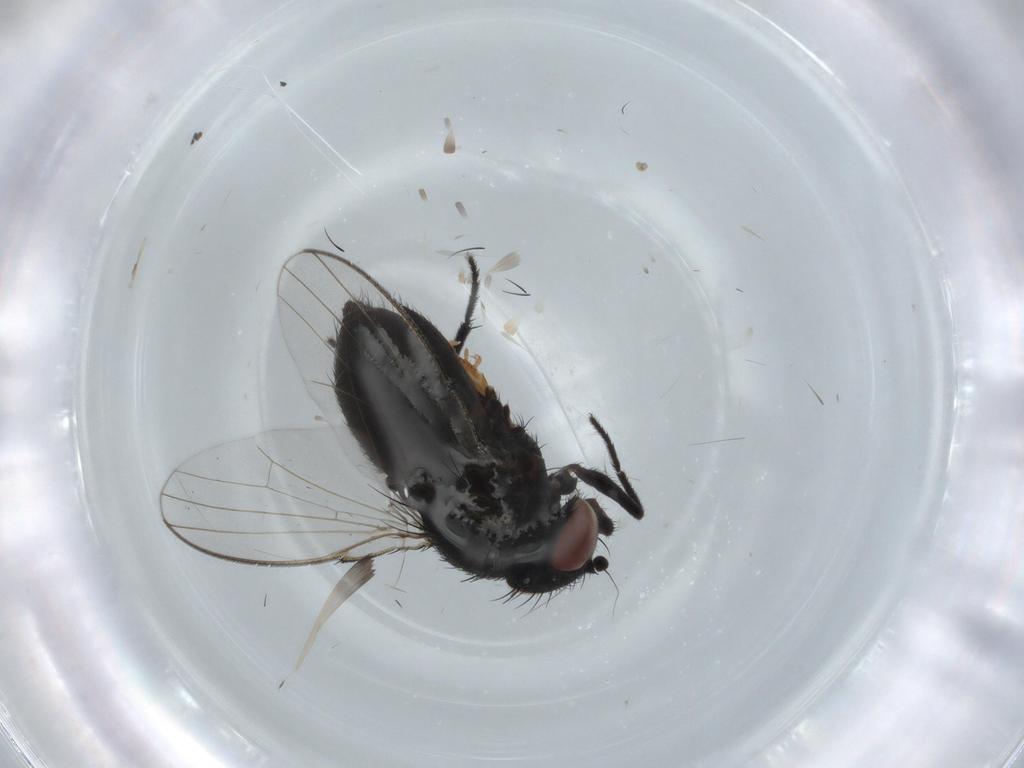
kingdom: Animalia
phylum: Arthropoda
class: Insecta
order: Diptera
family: Milichiidae
